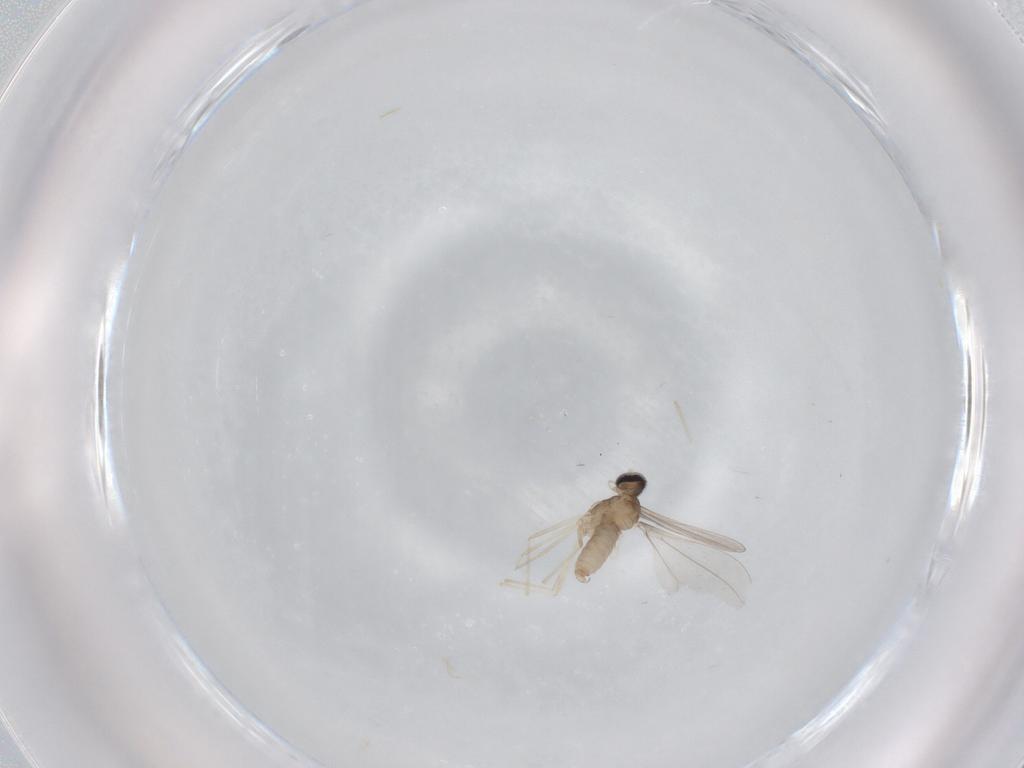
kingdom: Animalia
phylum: Arthropoda
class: Insecta
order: Diptera
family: Cecidomyiidae
